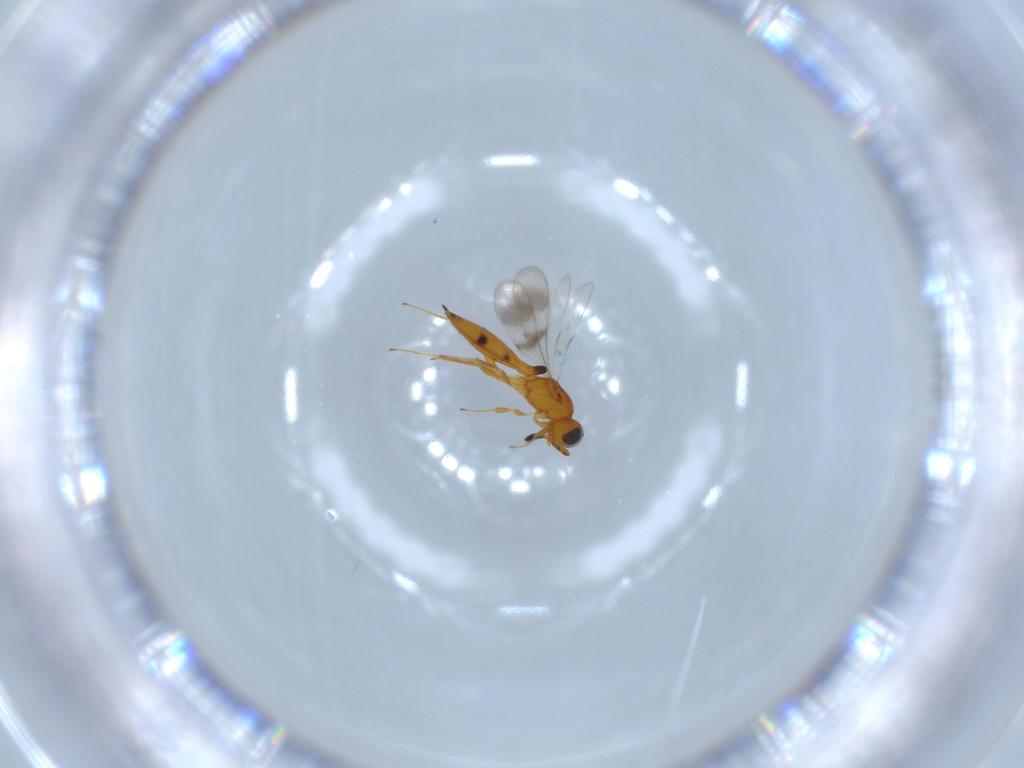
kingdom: Animalia
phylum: Arthropoda
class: Insecta
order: Hymenoptera
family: Scelionidae
